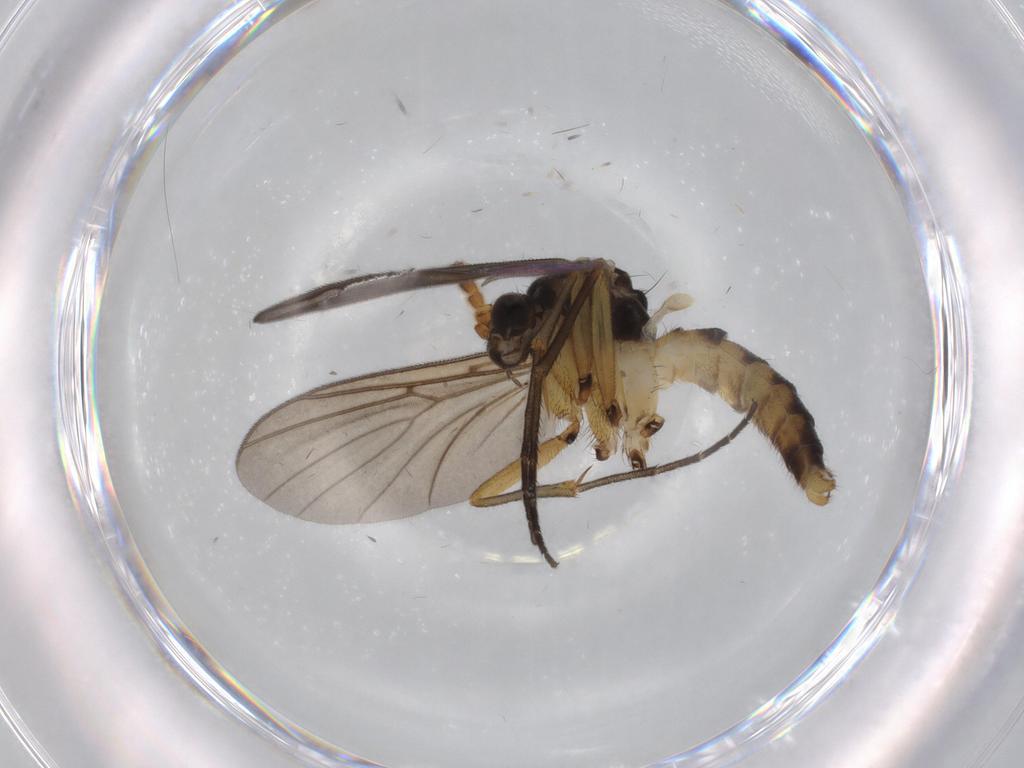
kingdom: Animalia
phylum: Arthropoda
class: Insecta
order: Diptera
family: Mycetophilidae
